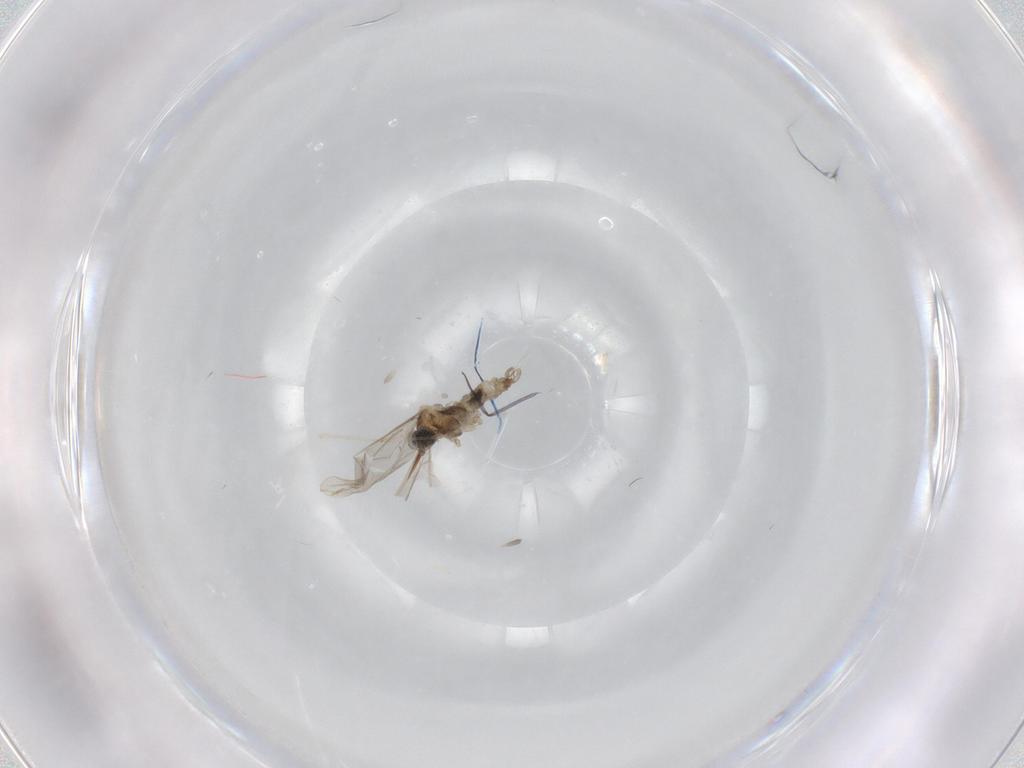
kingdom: Animalia
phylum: Arthropoda
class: Insecta
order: Diptera
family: Cecidomyiidae
